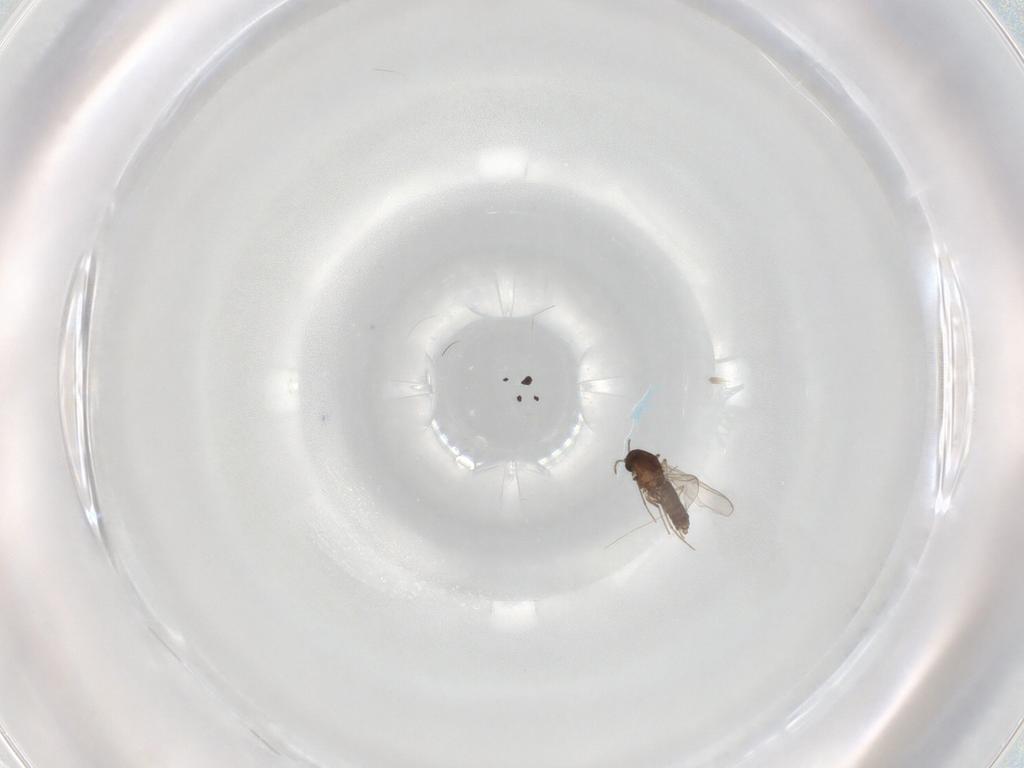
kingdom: Animalia
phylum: Arthropoda
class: Insecta
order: Diptera
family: Chironomidae
